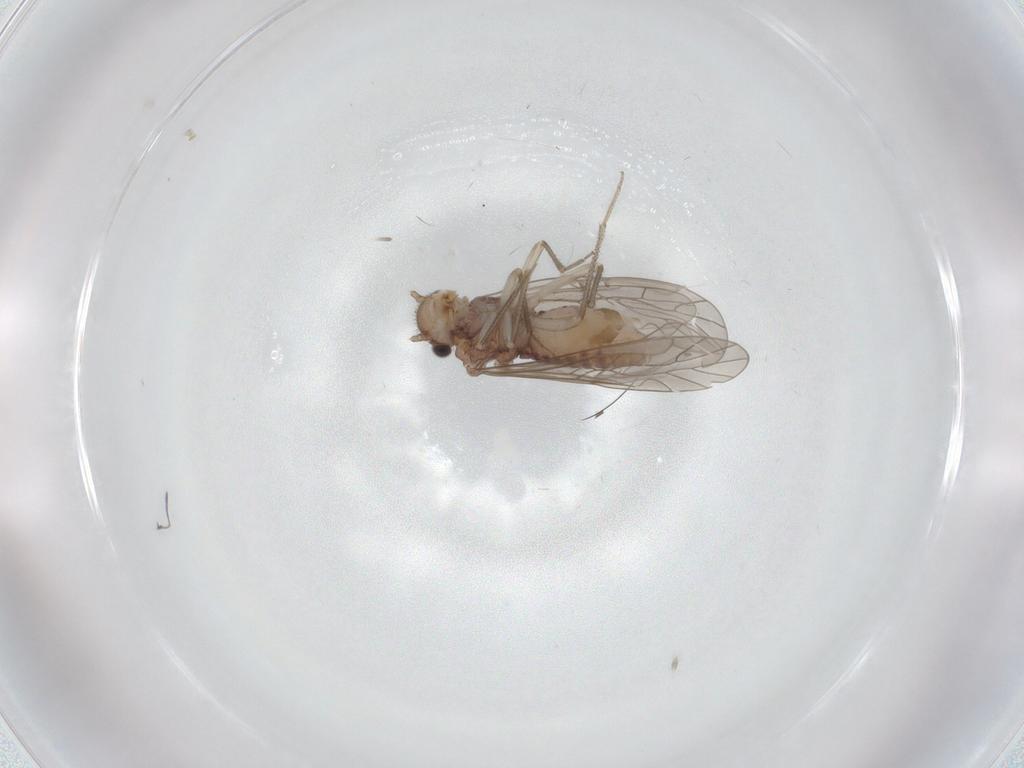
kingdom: Animalia
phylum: Arthropoda
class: Insecta
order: Psocodea
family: Caeciliusidae
